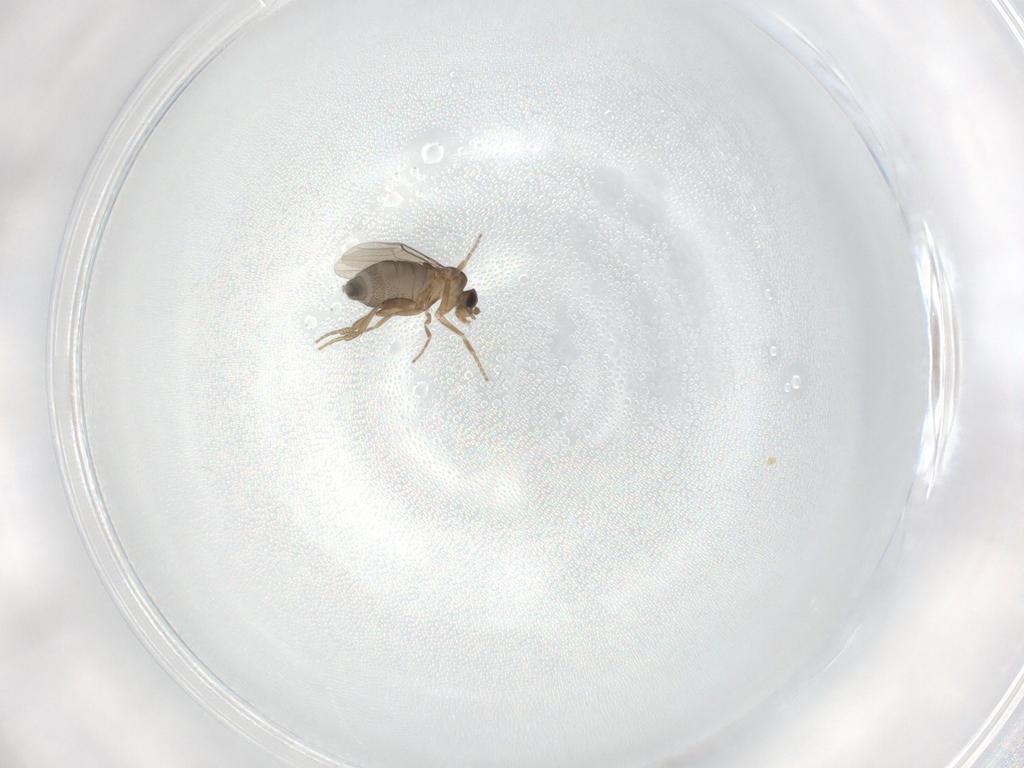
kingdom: Animalia
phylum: Arthropoda
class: Insecta
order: Diptera
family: Phoridae
